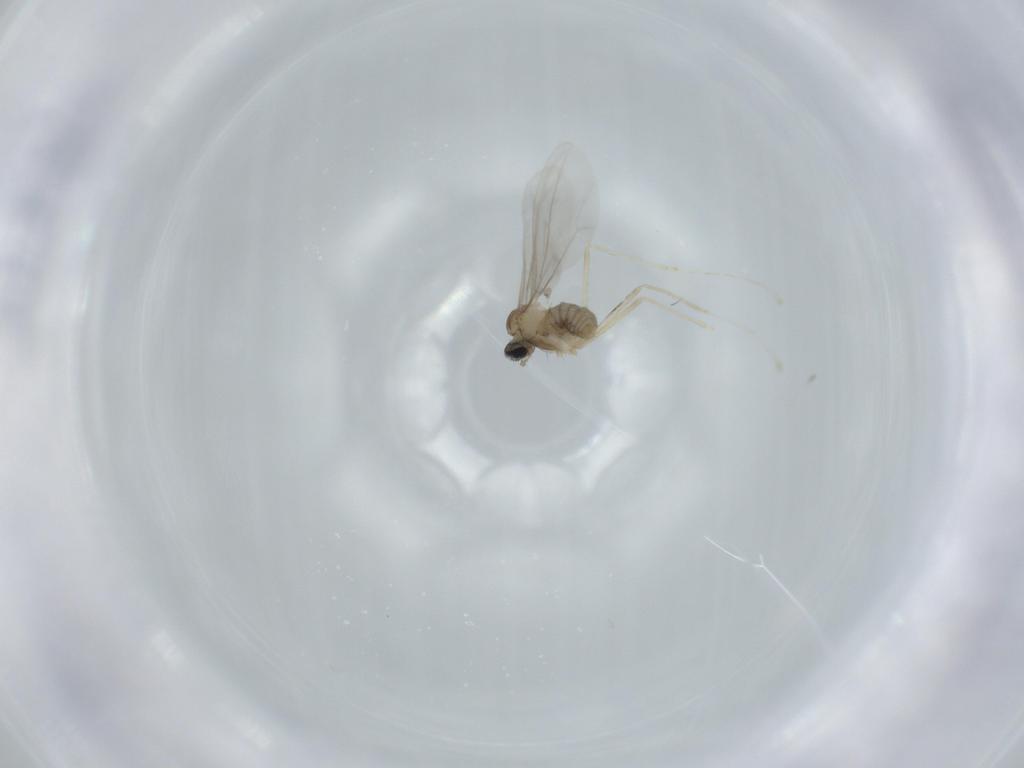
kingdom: Animalia
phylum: Arthropoda
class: Insecta
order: Diptera
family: Cecidomyiidae
